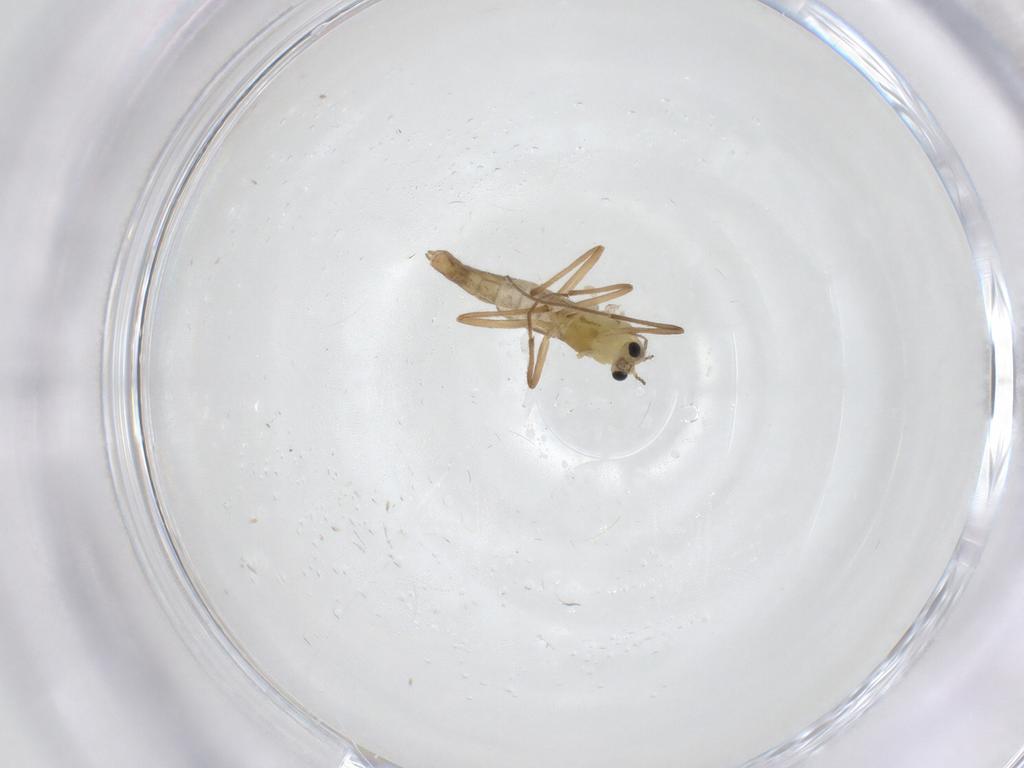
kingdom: Animalia
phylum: Arthropoda
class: Insecta
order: Diptera
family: Chironomidae
